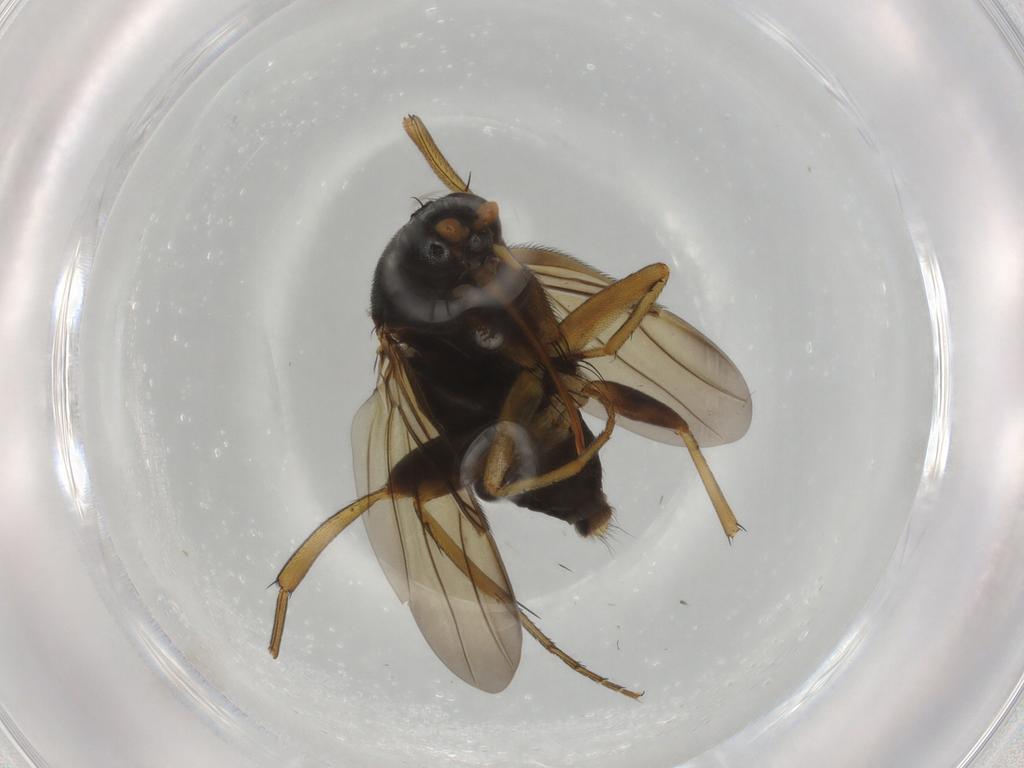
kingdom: Animalia
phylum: Arthropoda
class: Insecta
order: Diptera
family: Phoridae
